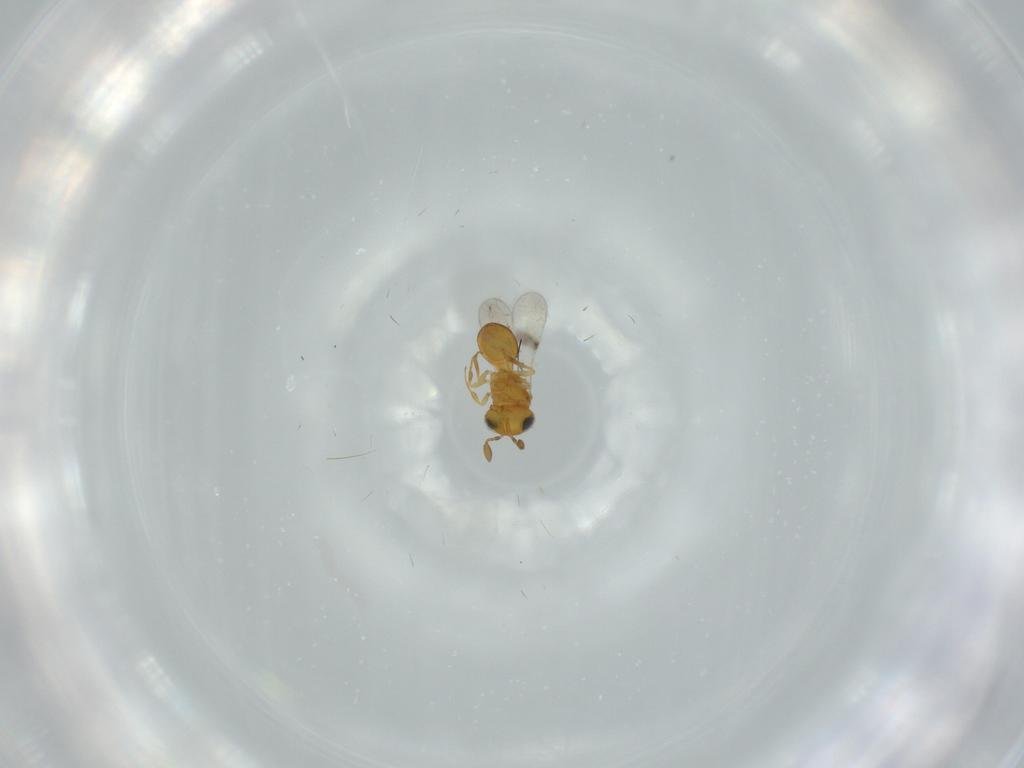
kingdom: Animalia
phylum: Arthropoda
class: Insecta
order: Hymenoptera
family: Scelionidae
